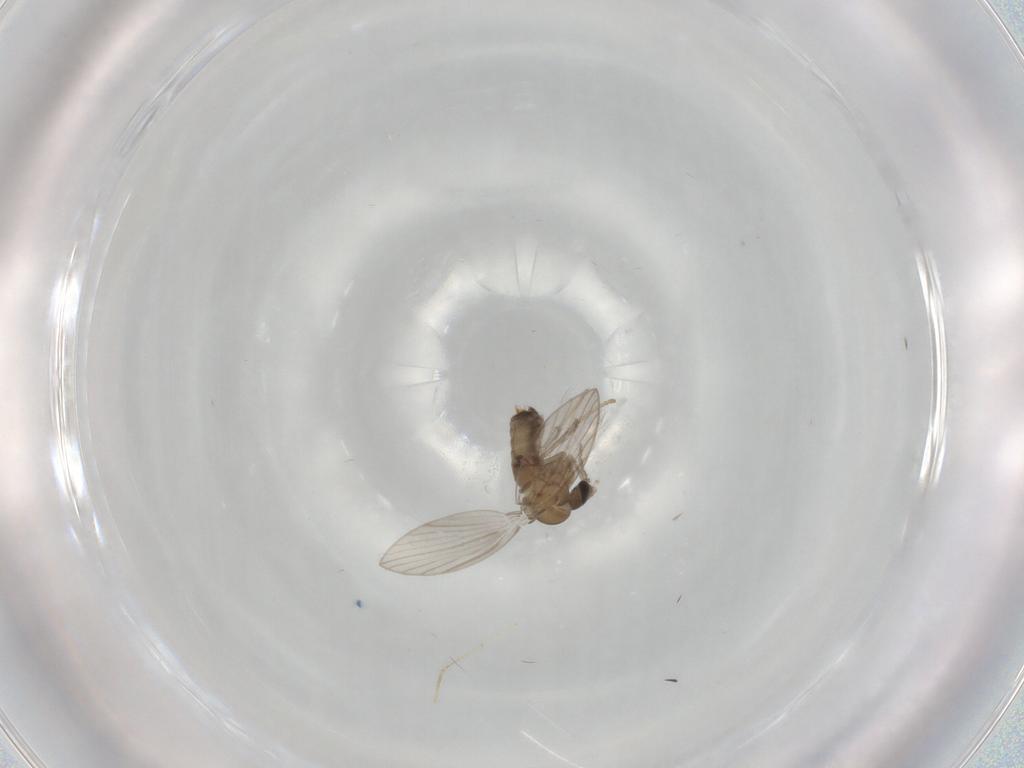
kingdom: Animalia
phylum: Arthropoda
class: Insecta
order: Diptera
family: Psychodidae
